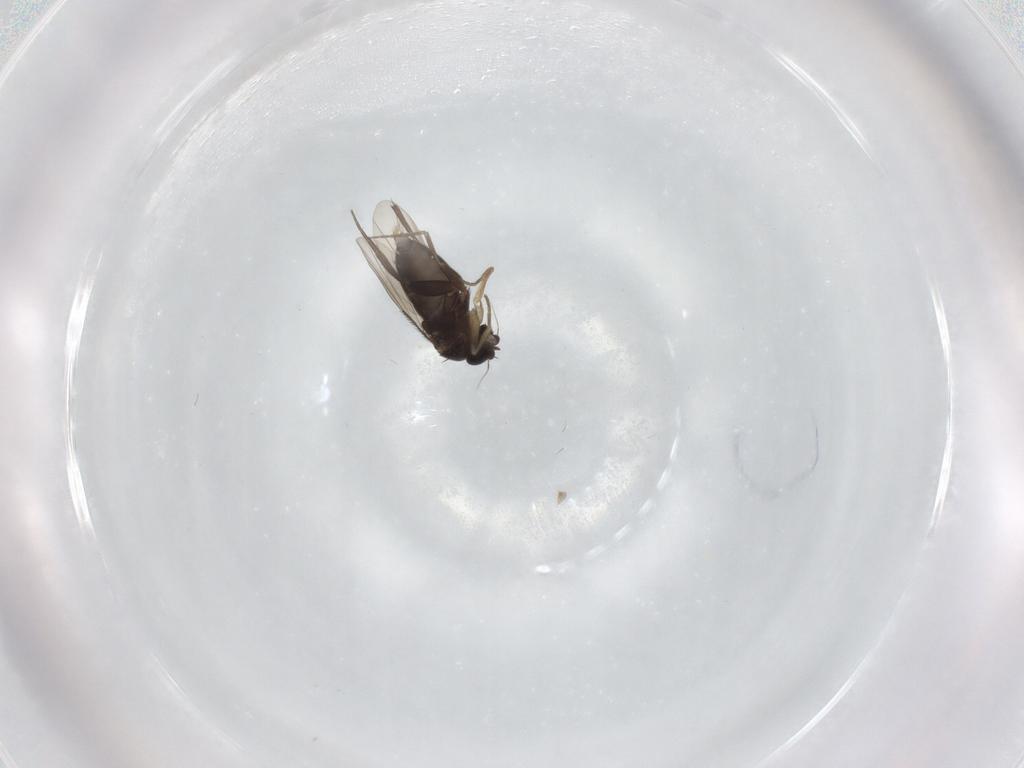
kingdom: Animalia
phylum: Arthropoda
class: Insecta
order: Diptera
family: Phoridae
